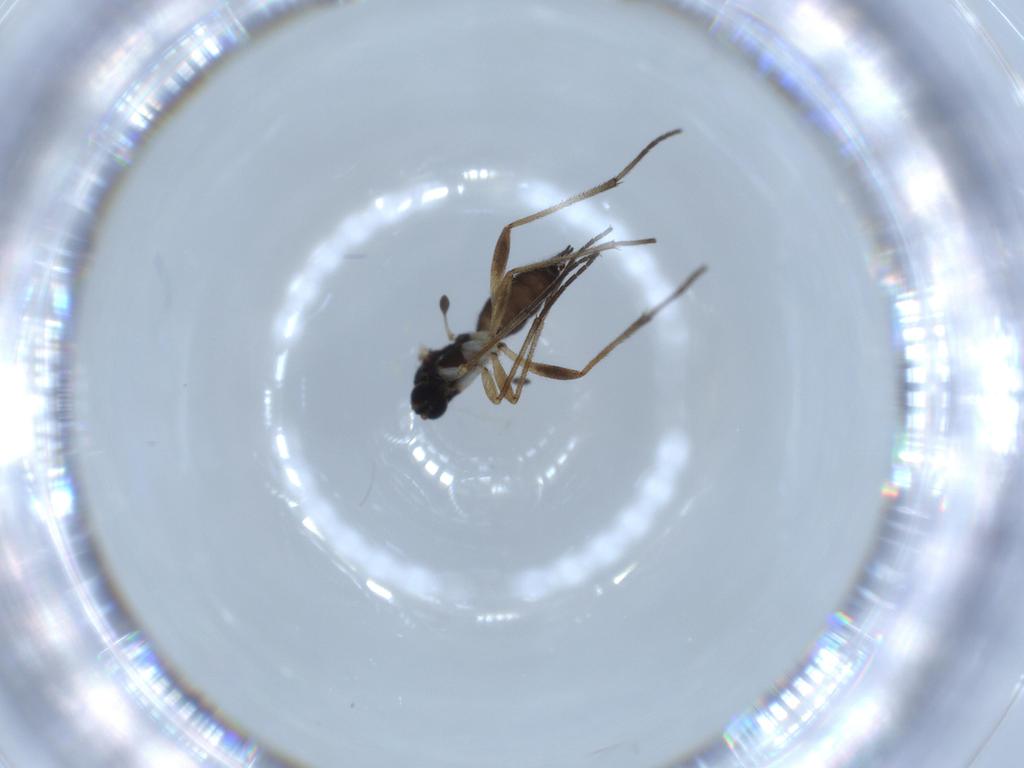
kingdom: Animalia
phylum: Arthropoda
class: Insecta
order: Diptera
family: Sciaridae
